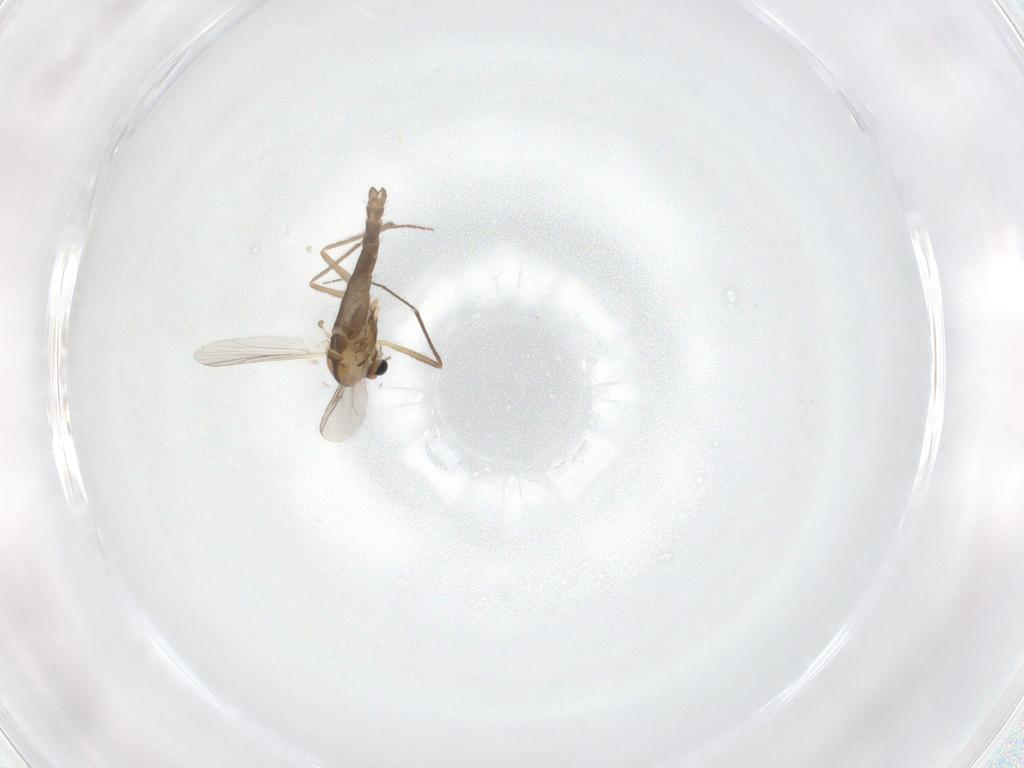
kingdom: Animalia
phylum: Arthropoda
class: Insecta
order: Diptera
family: Chironomidae
